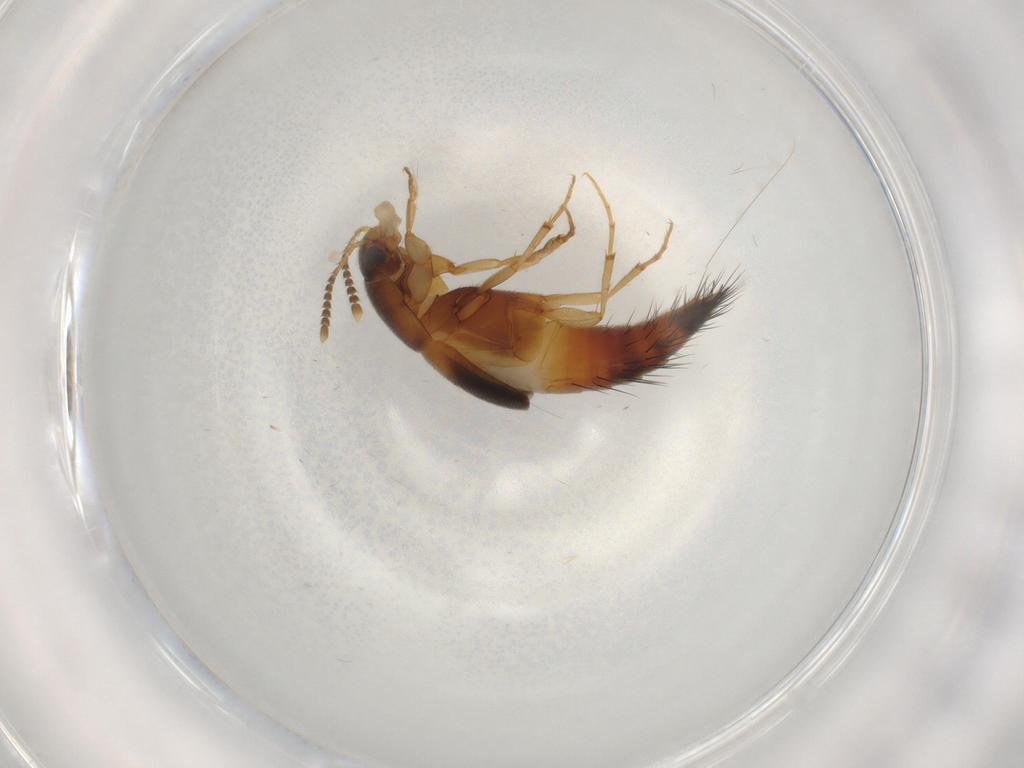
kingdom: Animalia
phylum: Arthropoda
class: Insecta
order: Coleoptera
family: Staphylinidae
